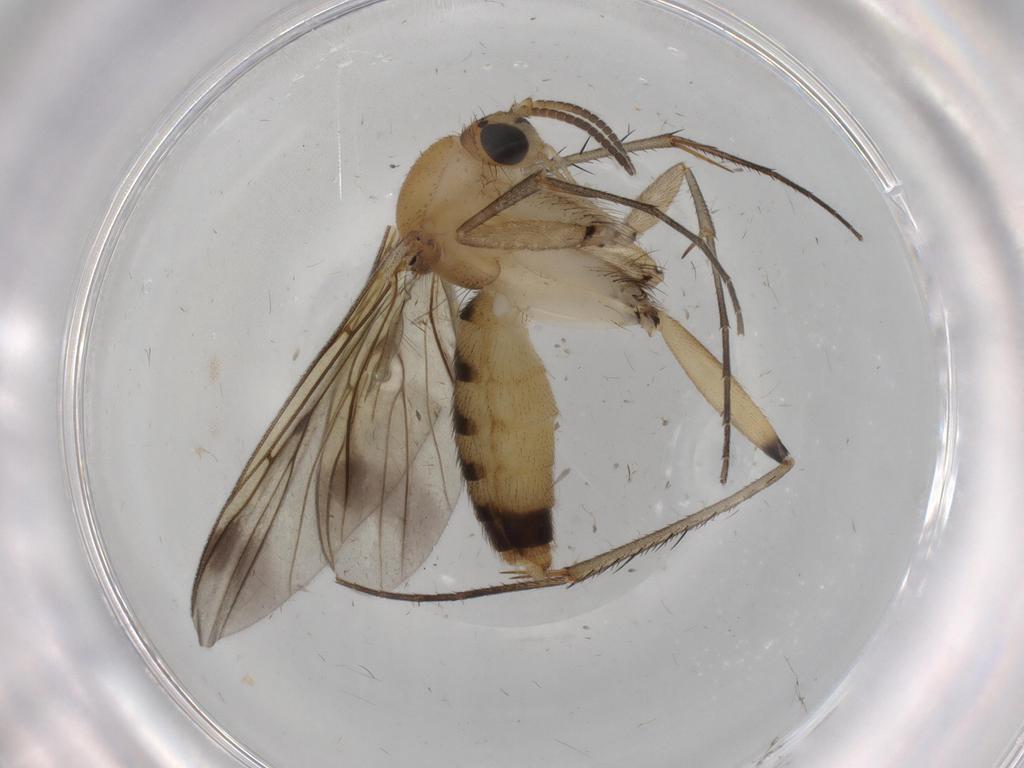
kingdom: Animalia
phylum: Arthropoda
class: Insecta
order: Diptera
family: Mycetophilidae
